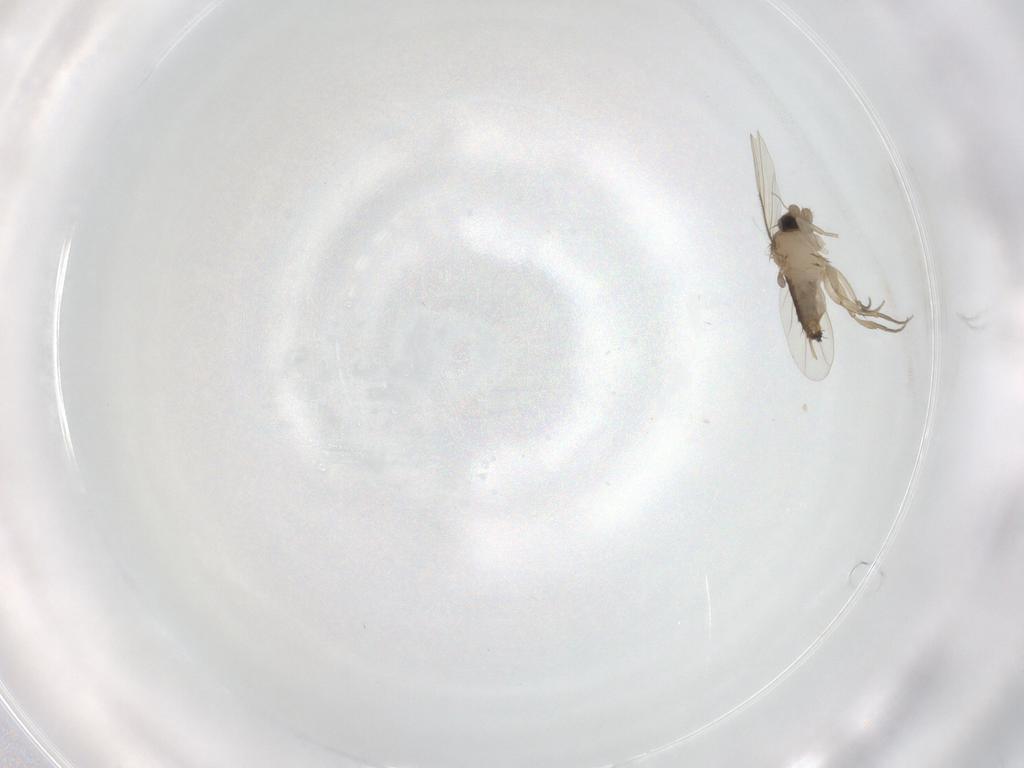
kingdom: Animalia
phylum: Arthropoda
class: Insecta
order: Diptera
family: Phoridae
